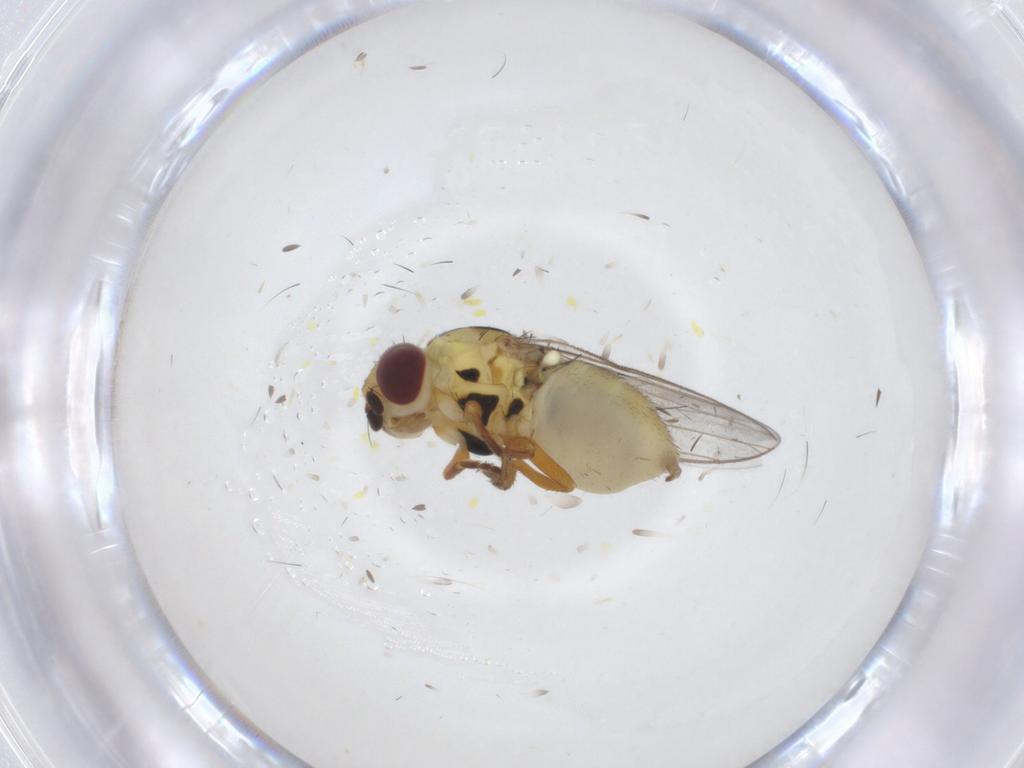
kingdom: Animalia
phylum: Arthropoda
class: Insecta
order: Diptera
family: Chloropidae
